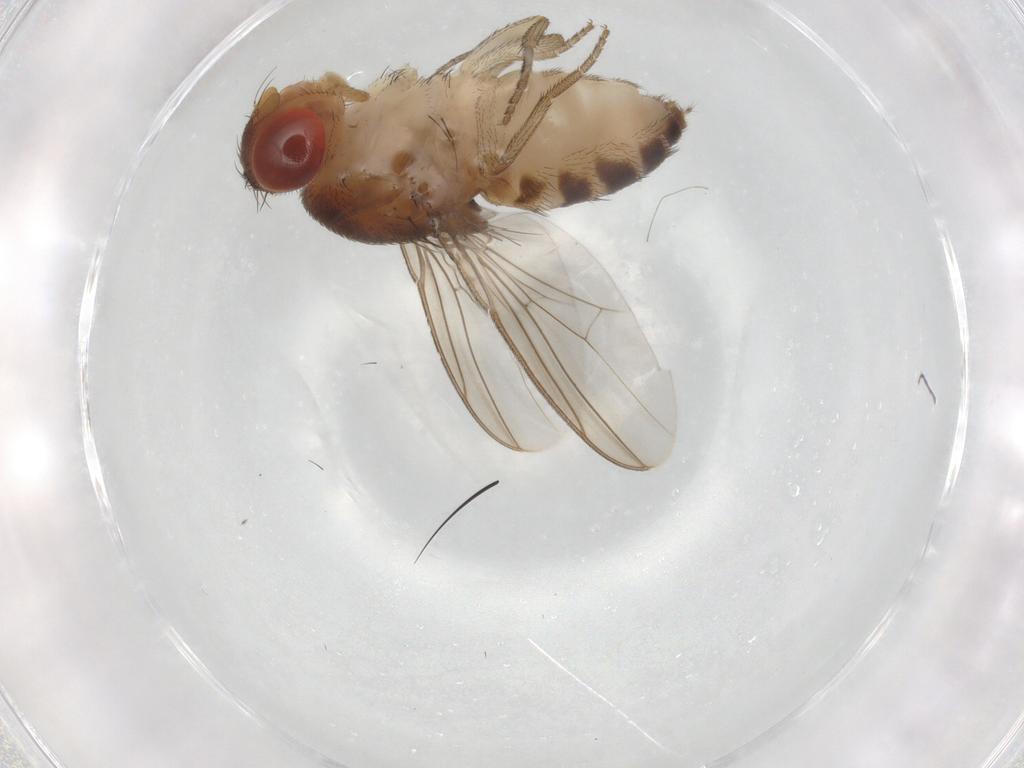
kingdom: Animalia
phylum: Arthropoda
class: Insecta
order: Diptera
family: Drosophilidae
